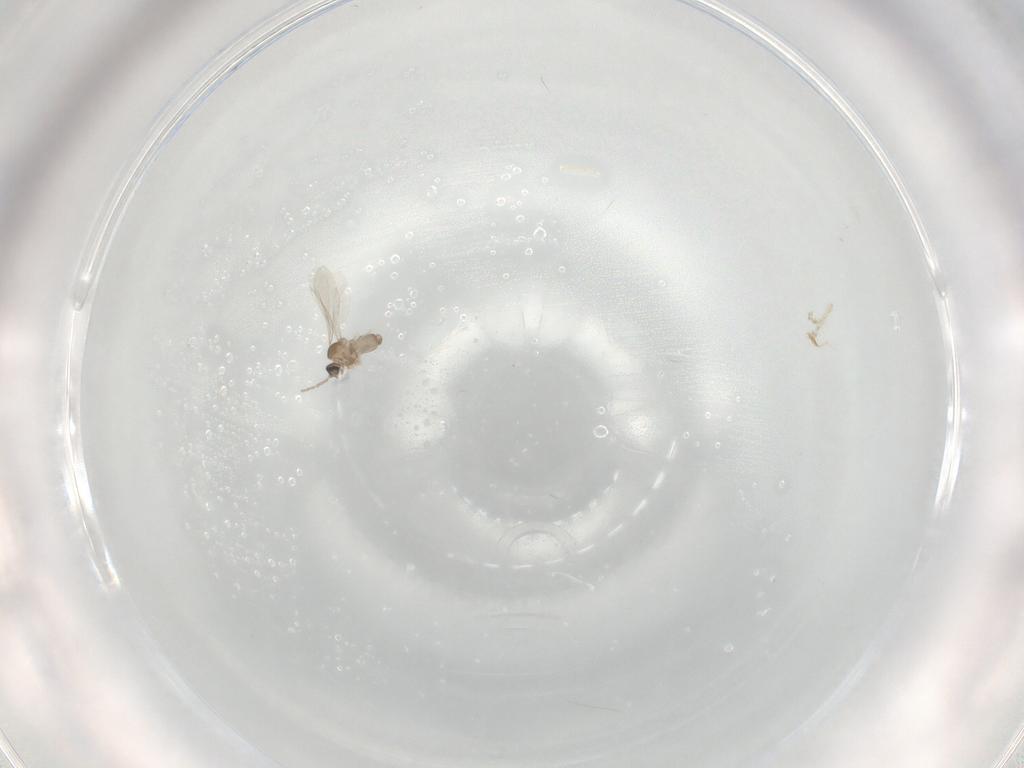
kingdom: Animalia
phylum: Arthropoda
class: Insecta
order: Diptera
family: Cecidomyiidae
